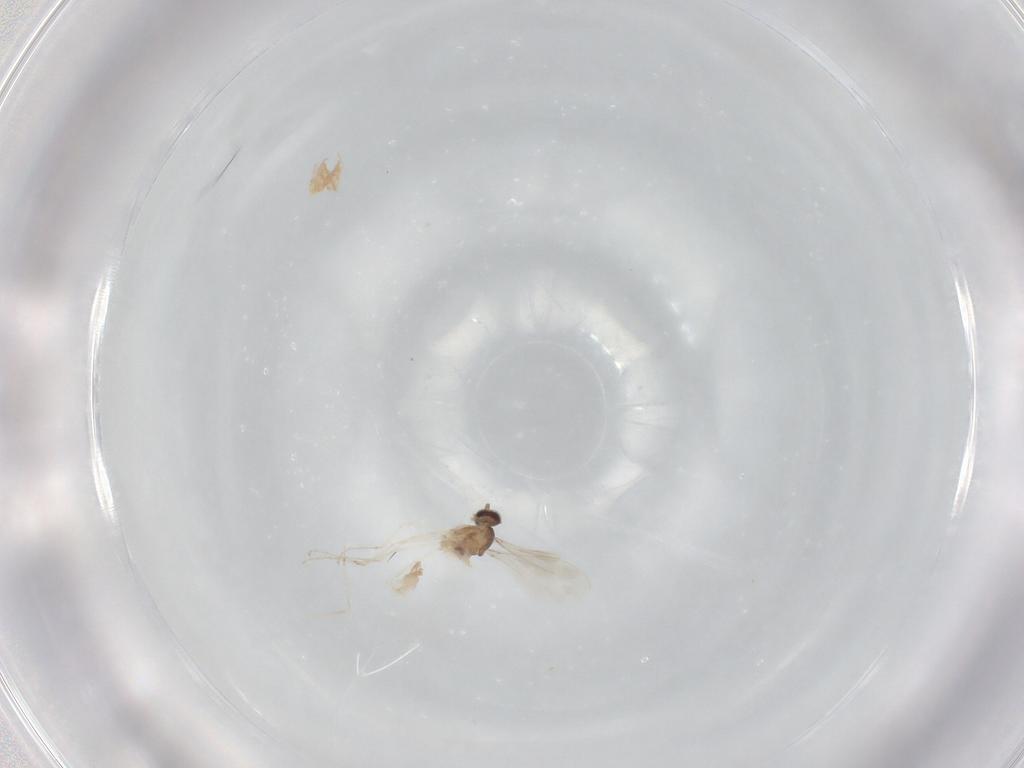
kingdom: Animalia
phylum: Arthropoda
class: Insecta
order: Diptera
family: Cecidomyiidae
